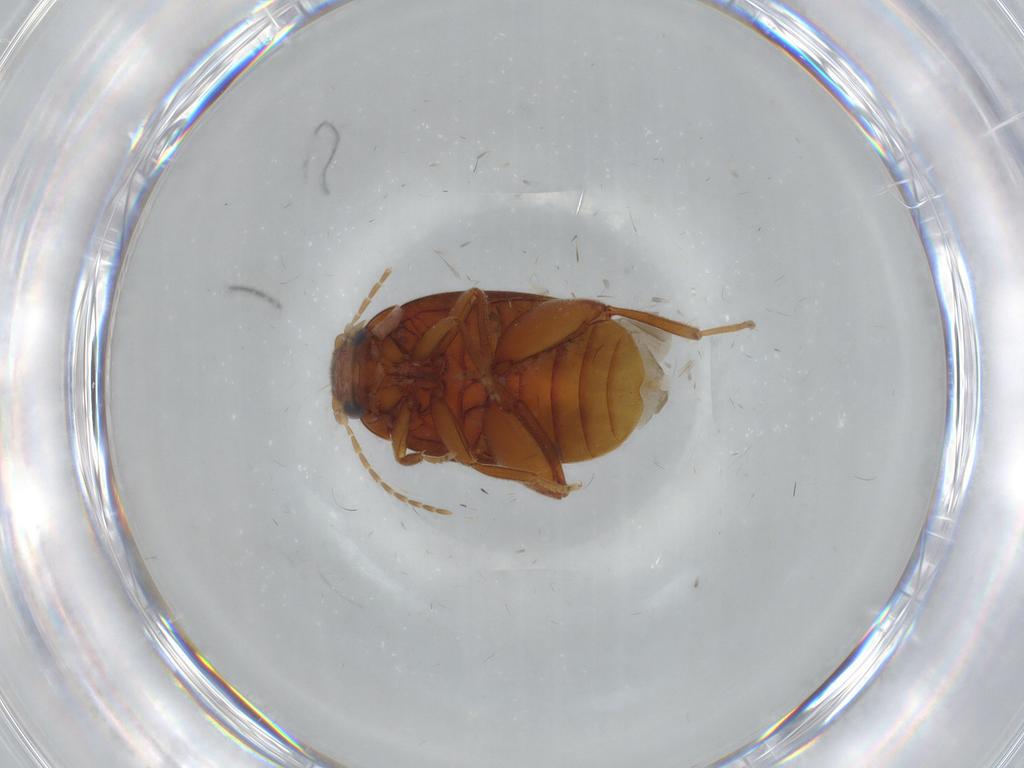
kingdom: Animalia
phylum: Arthropoda
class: Insecta
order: Coleoptera
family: Scirtidae
